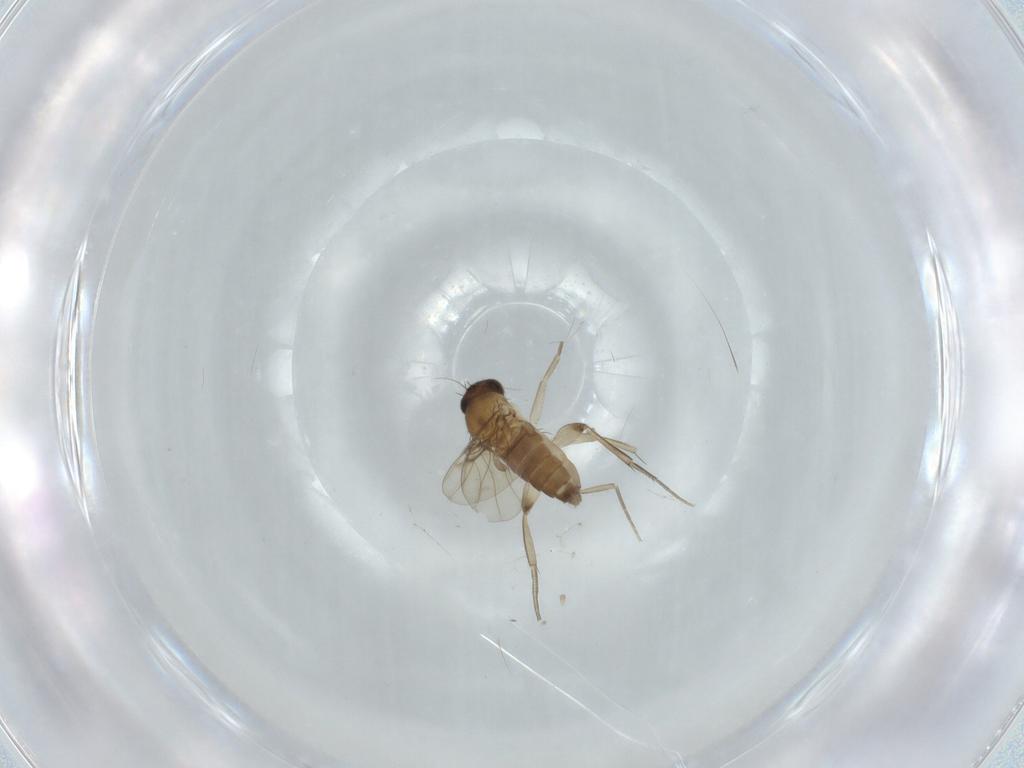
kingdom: Animalia
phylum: Arthropoda
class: Insecta
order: Diptera
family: Phoridae
